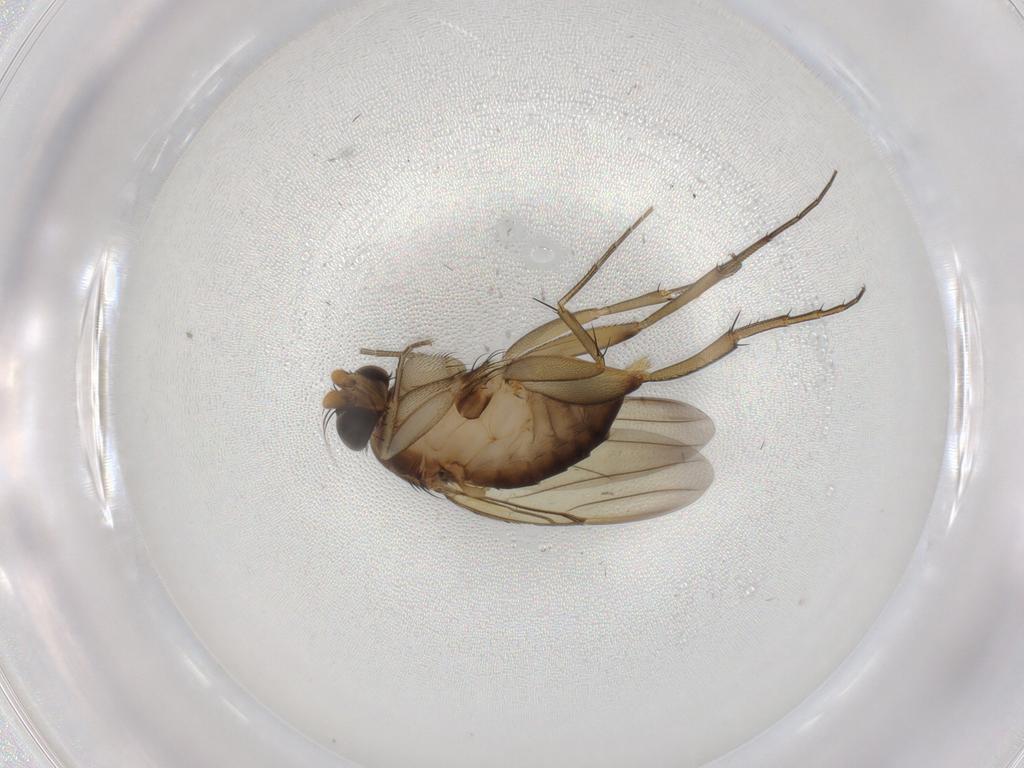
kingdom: Animalia
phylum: Arthropoda
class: Insecta
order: Diptera
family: Phoridae
